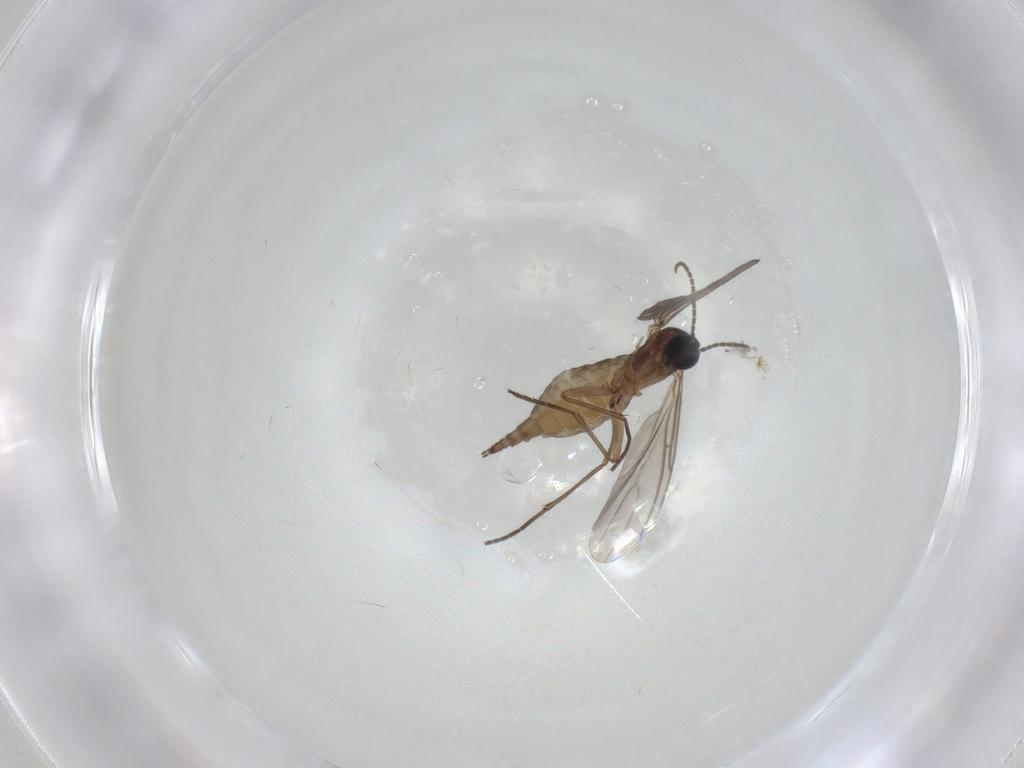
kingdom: Animalia
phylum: Arthropoda
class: Insecta
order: Diptera
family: Sciaridae
